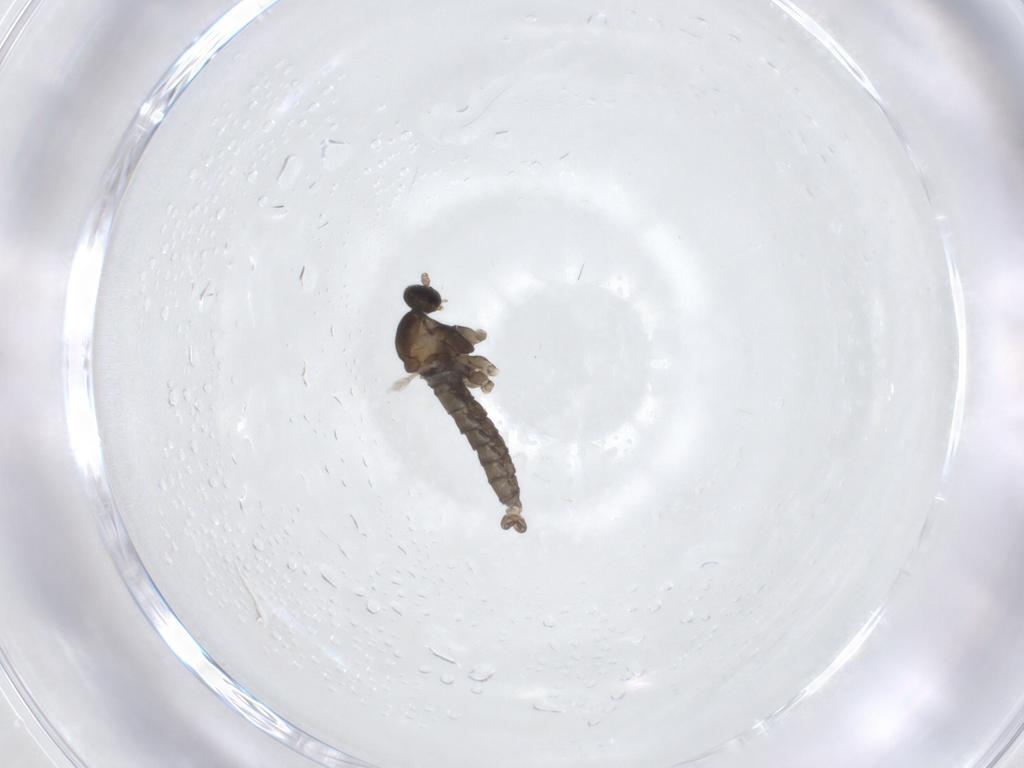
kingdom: Animalia
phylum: Arthropoda
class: Insecta
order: Diptera
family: Cecidomyiidae
